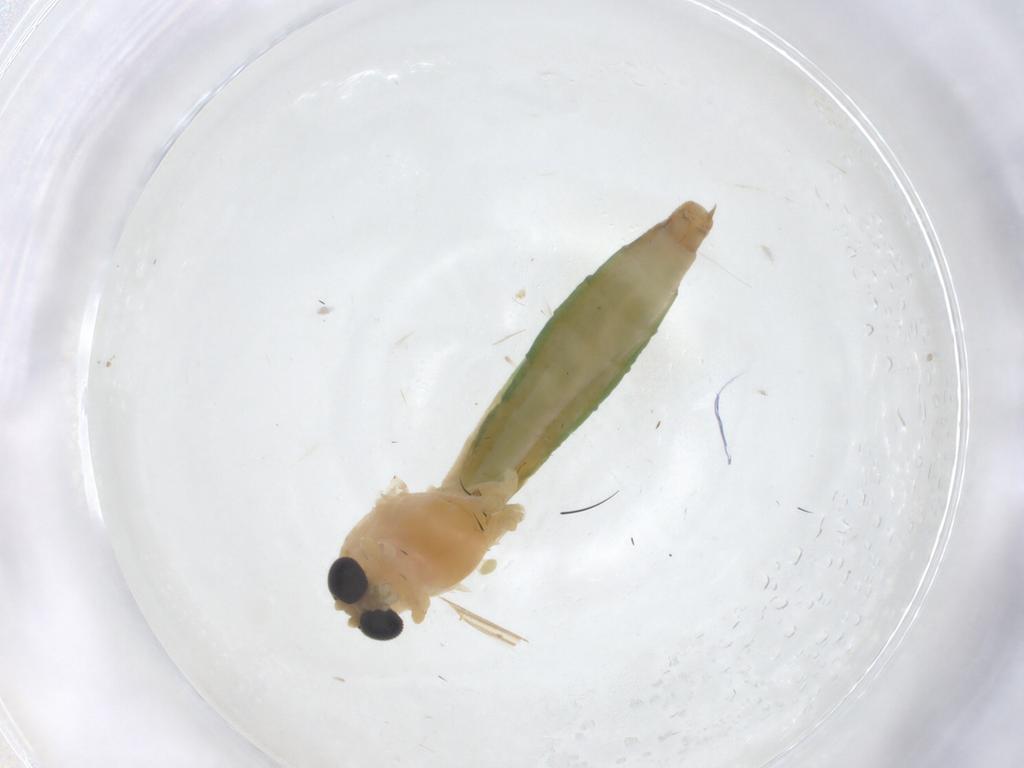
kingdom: Animalia
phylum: Arthropoda
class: Insecta
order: Diptera
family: Chironomidae
